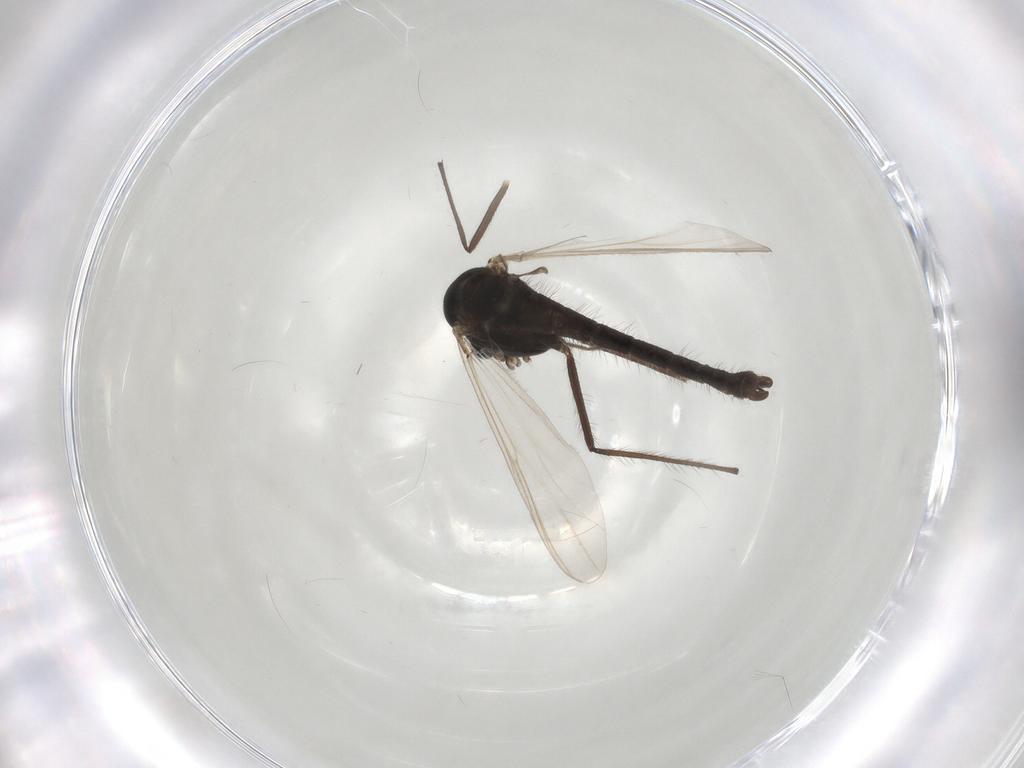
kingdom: Animalia
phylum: Arthropoda
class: Insecta
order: Diptera
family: Chironomidae
